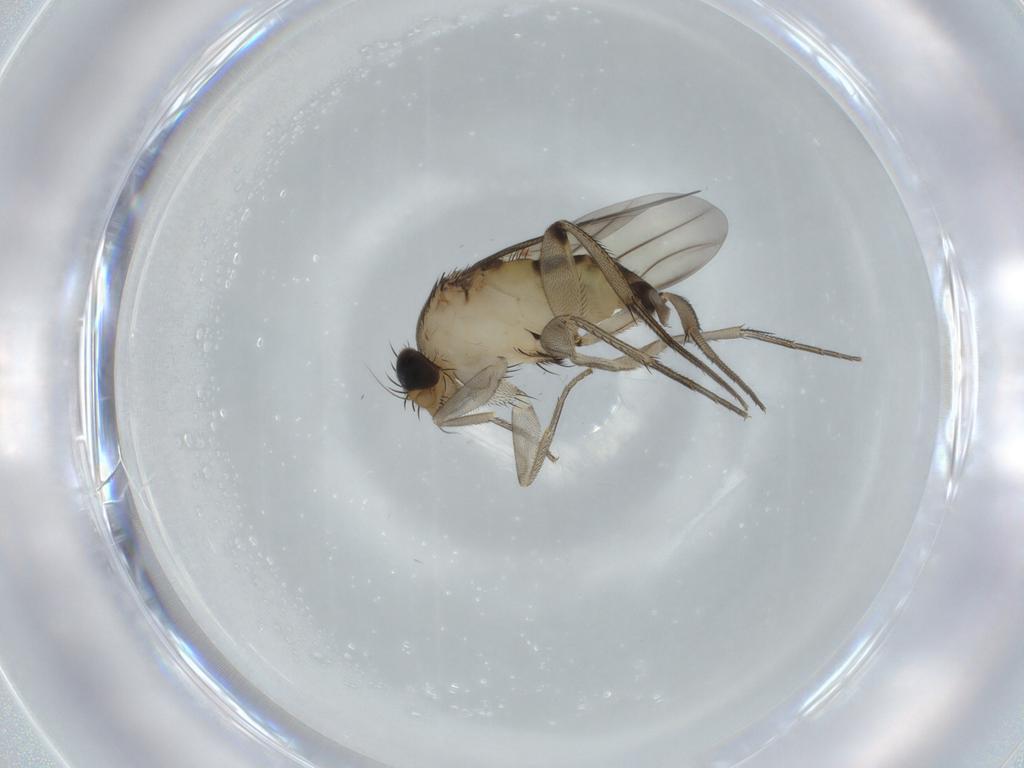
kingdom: Animalia
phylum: Arthropoda
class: Insecta
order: Diptera
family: Phoridae
